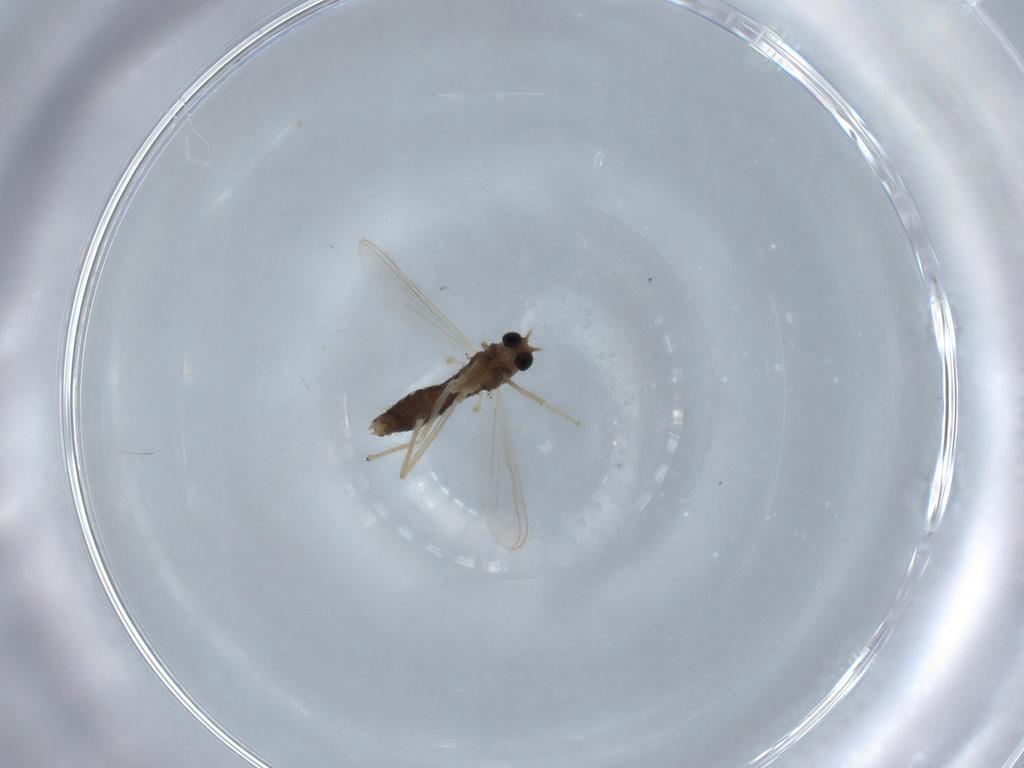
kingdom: Animalia
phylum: Arthropoda
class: Insecta
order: Diptera
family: Chironomidae
